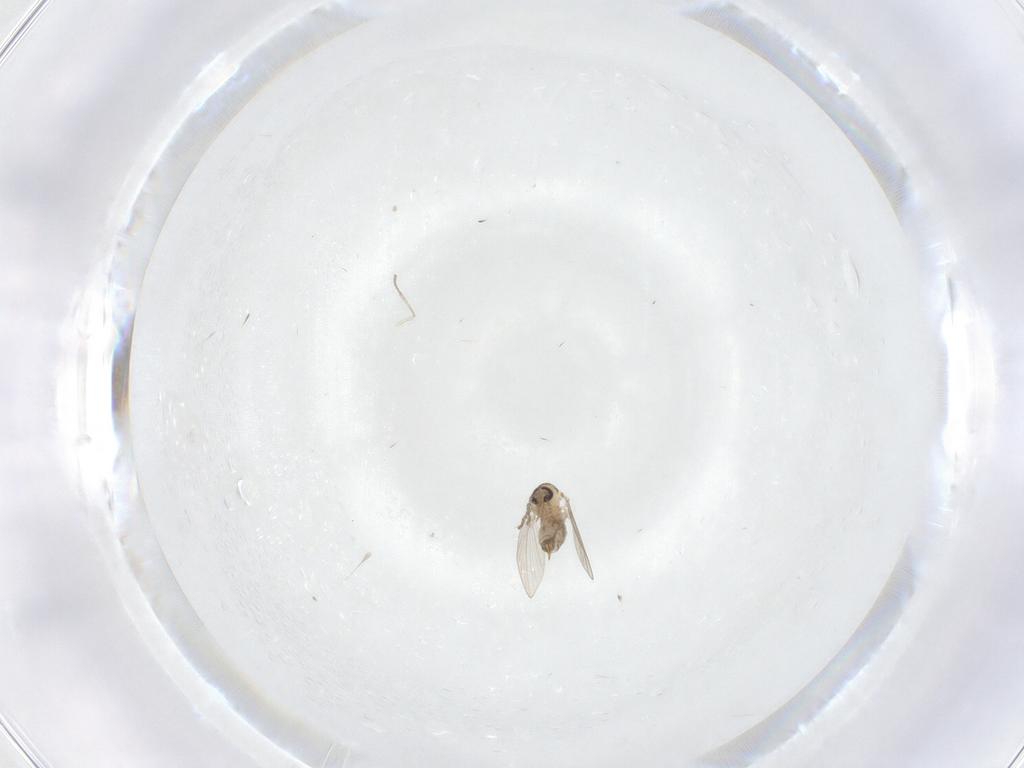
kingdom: Animalia
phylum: Arthropoda
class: Insecta
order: Diptera
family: Psychodidae
